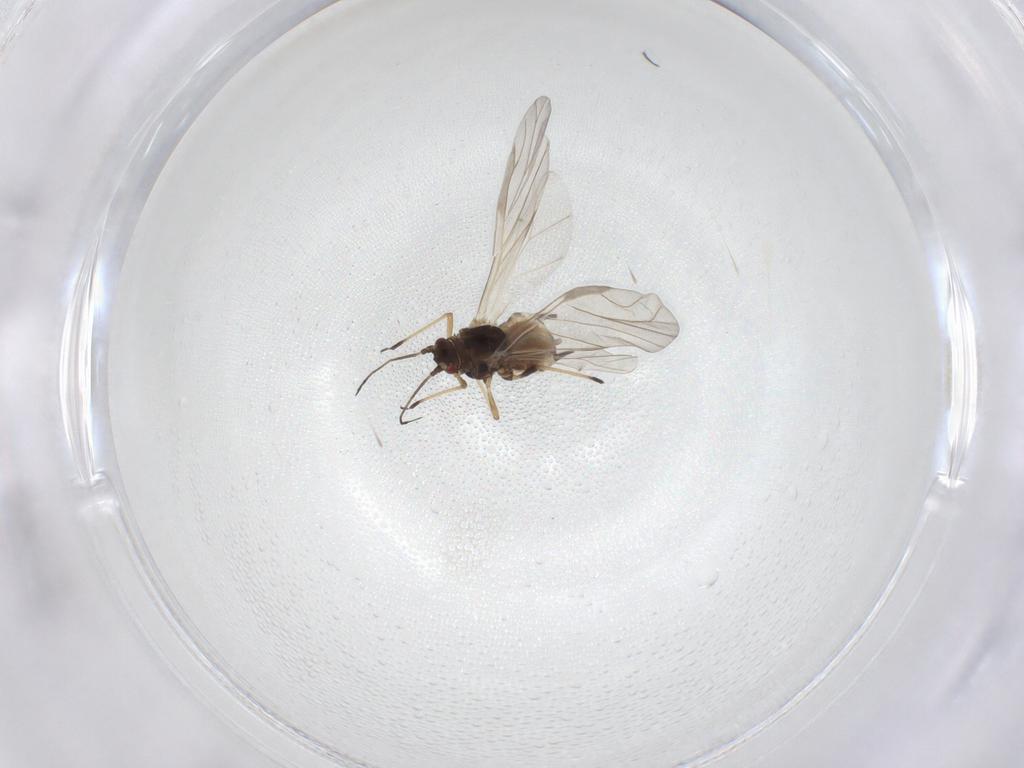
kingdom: Animalia
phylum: Arthropoda
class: Insecta
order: Hemiptera
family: Aphididae
